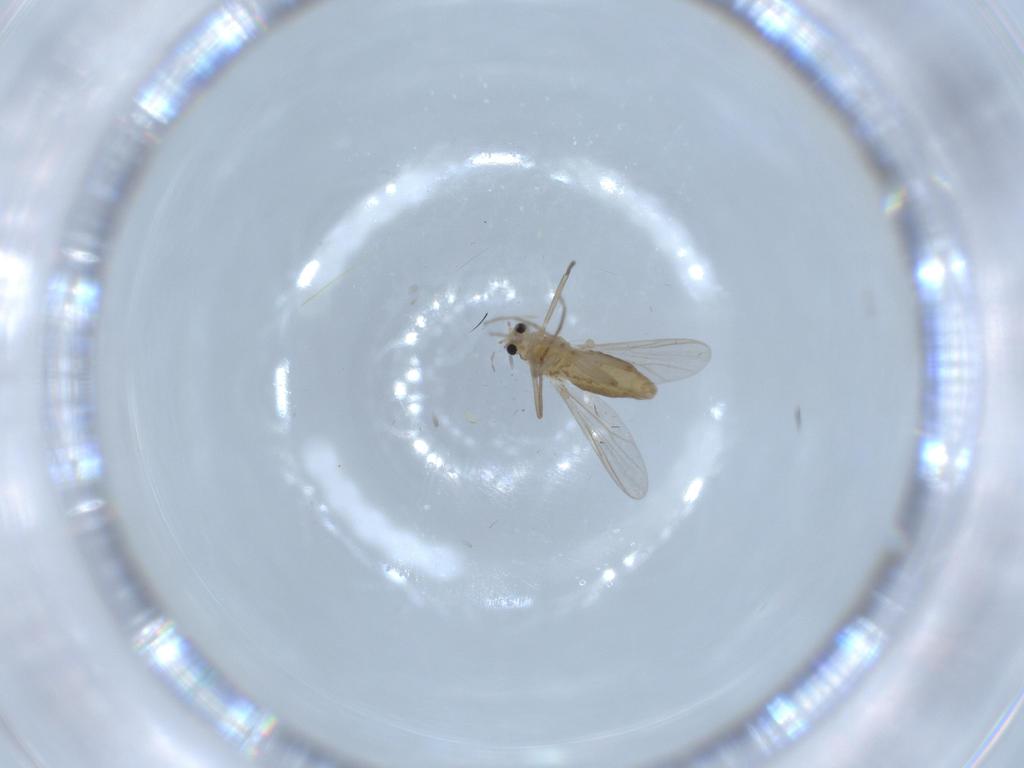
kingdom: Animalia
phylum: Arthropoda
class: Insecta
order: Diptera
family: Chironomidae
